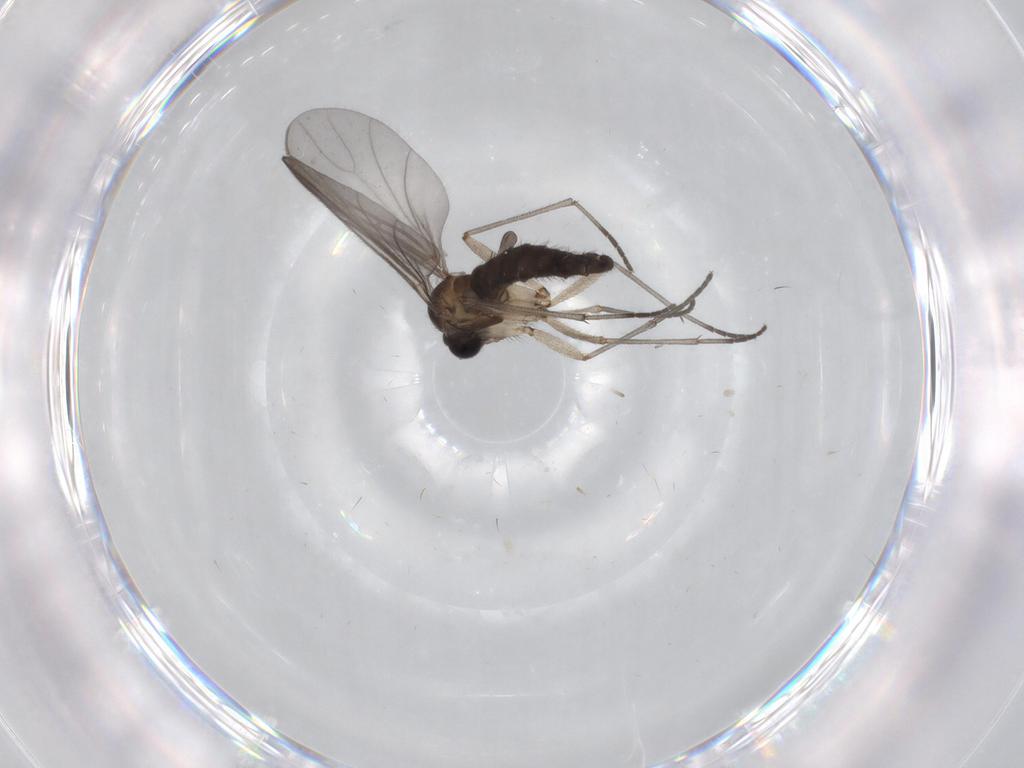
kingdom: Animalia
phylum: Arthropoda
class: Insecta
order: Diptera
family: Sciaridae
